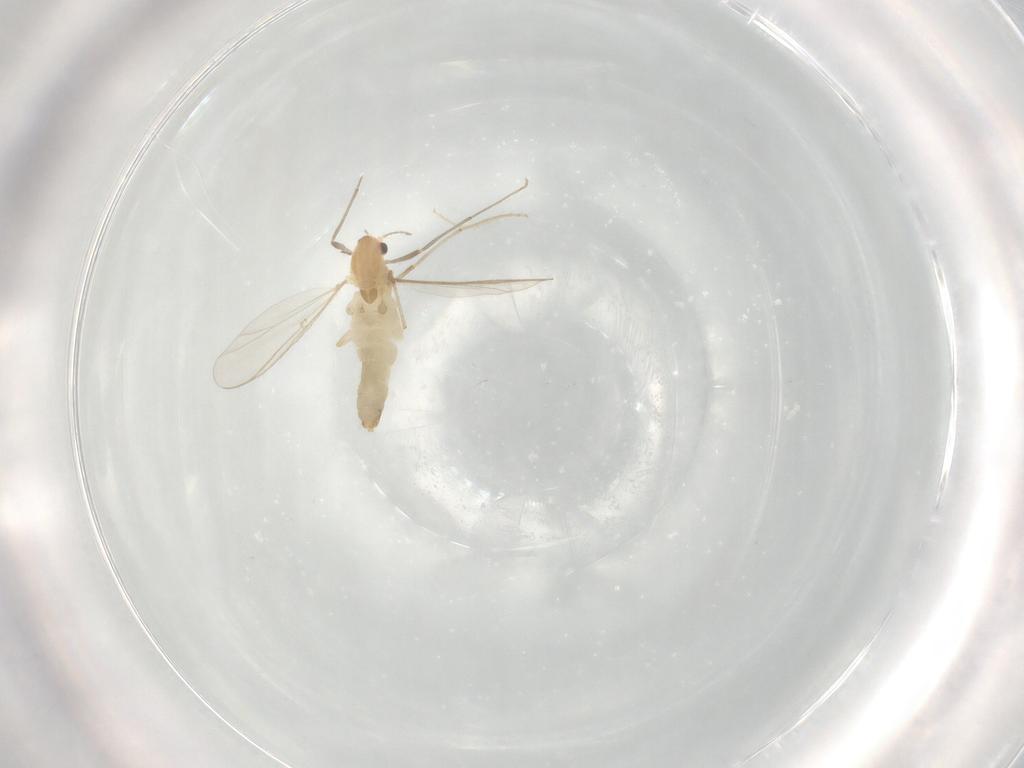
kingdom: Animalia
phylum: Arthropoda
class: Insecta
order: Diptera
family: Chironomidae
